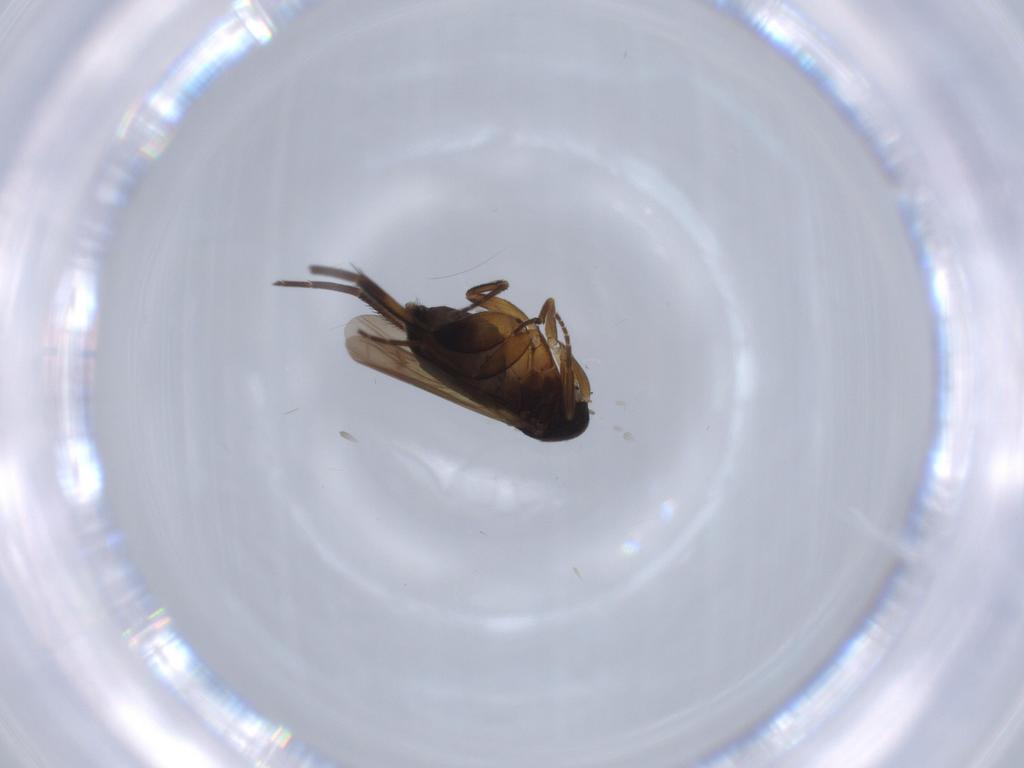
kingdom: Animalia
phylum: Arthropoda
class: Insecta
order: Diptera
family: Phoridae
